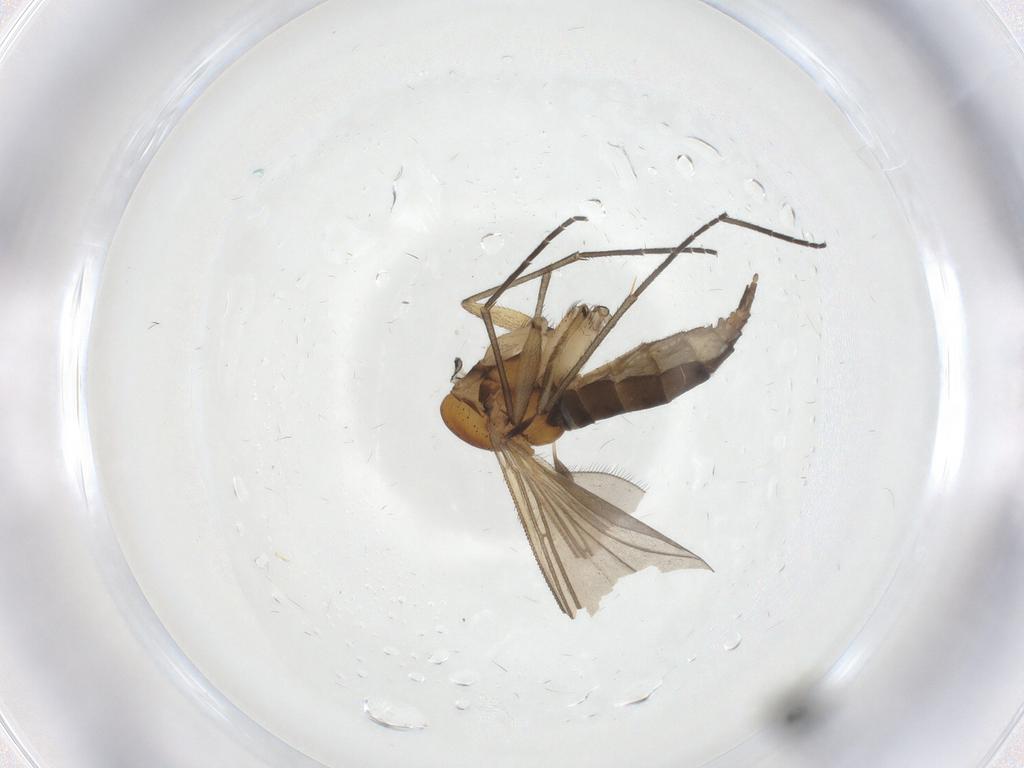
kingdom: Animalia
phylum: Arthropoda
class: Insecta
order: Diptera
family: Sciaridae
